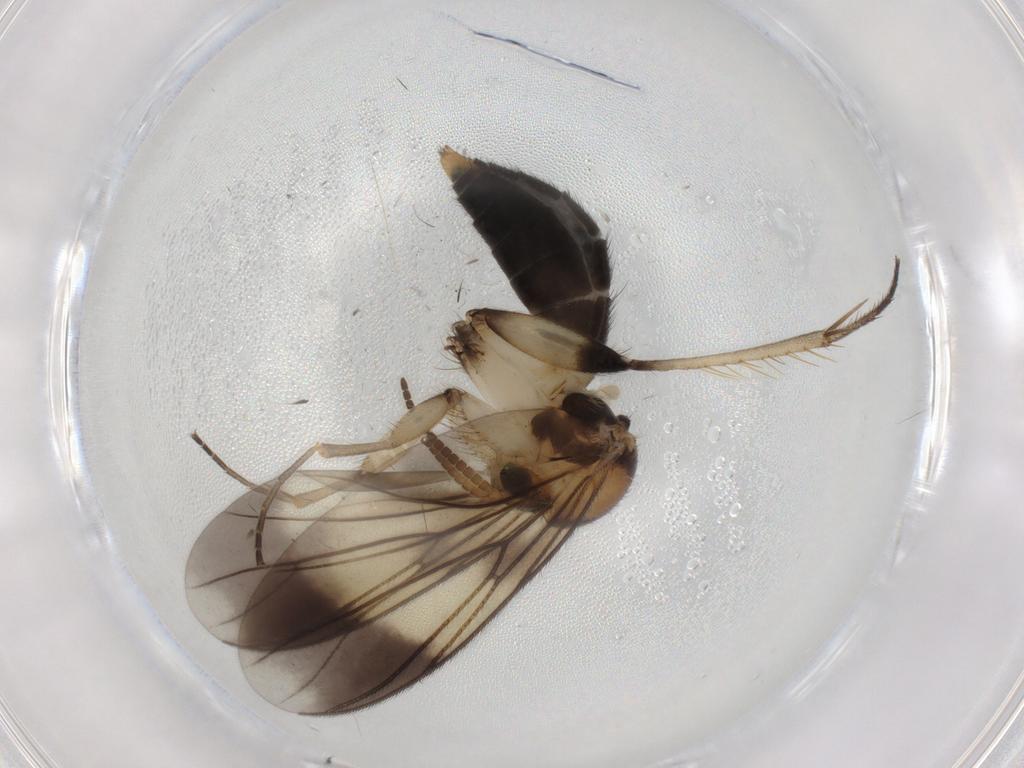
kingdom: Animalia
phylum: Arthropoda
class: Insecta
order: Diptera
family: Mycetophilidae
